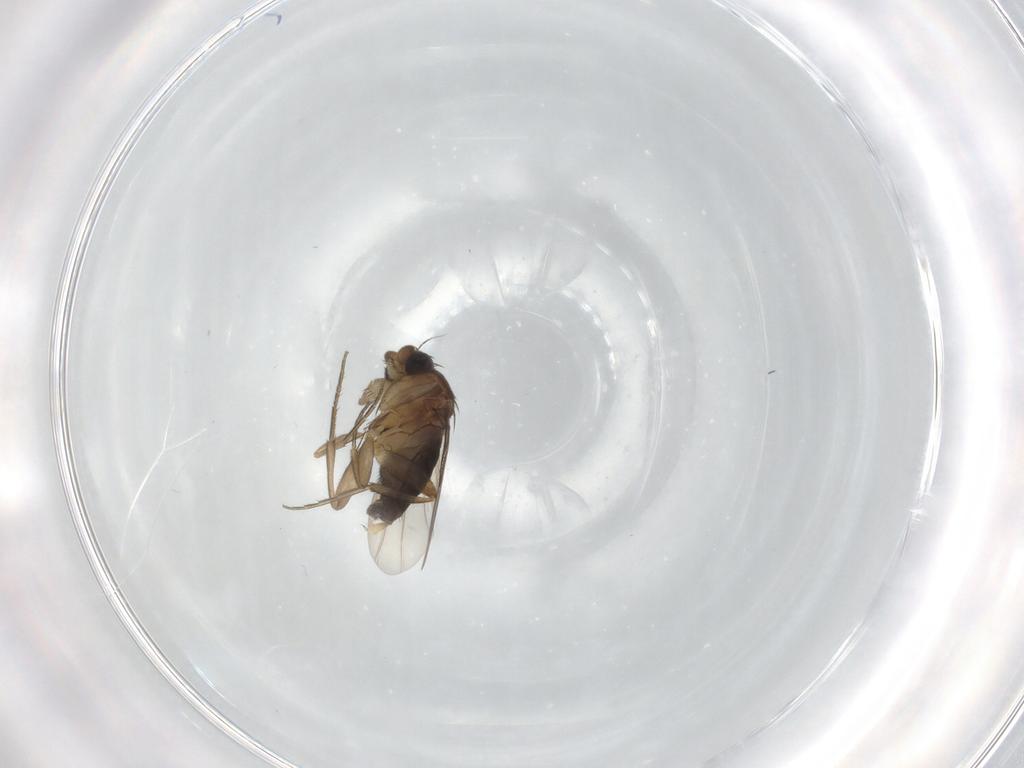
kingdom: Animalia
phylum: Arthropoda
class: Insecta
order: Diptera
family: Phoridae
